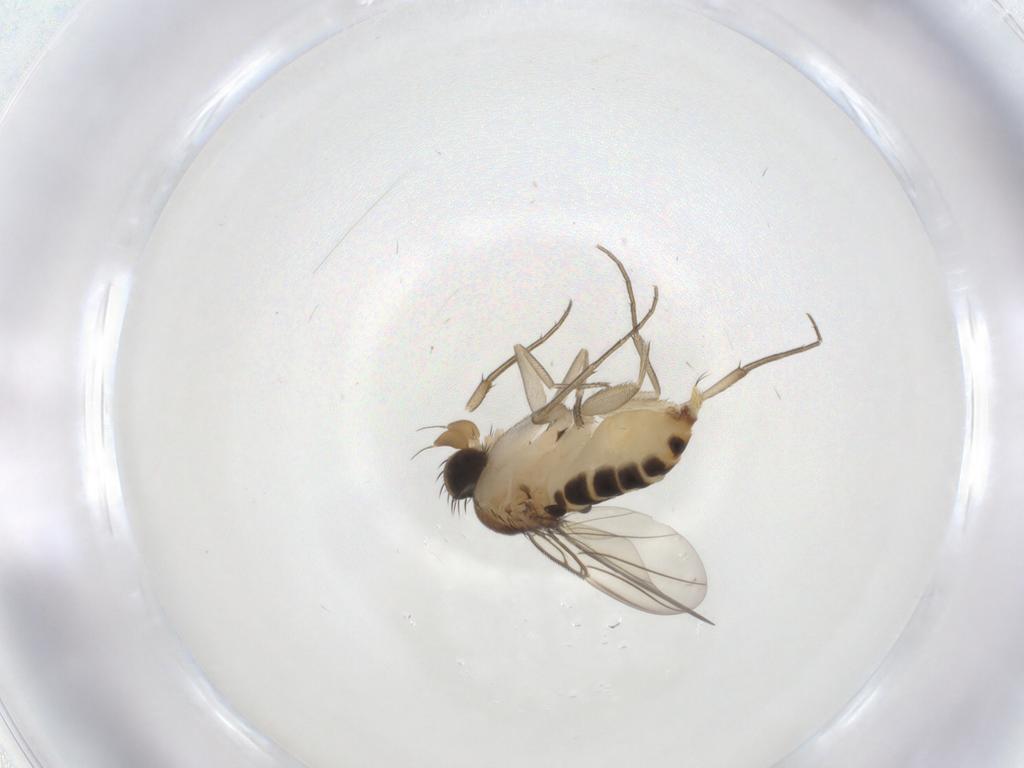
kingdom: Animalia
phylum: Arthropoda
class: Insecta
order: Diptera
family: Phoridae
